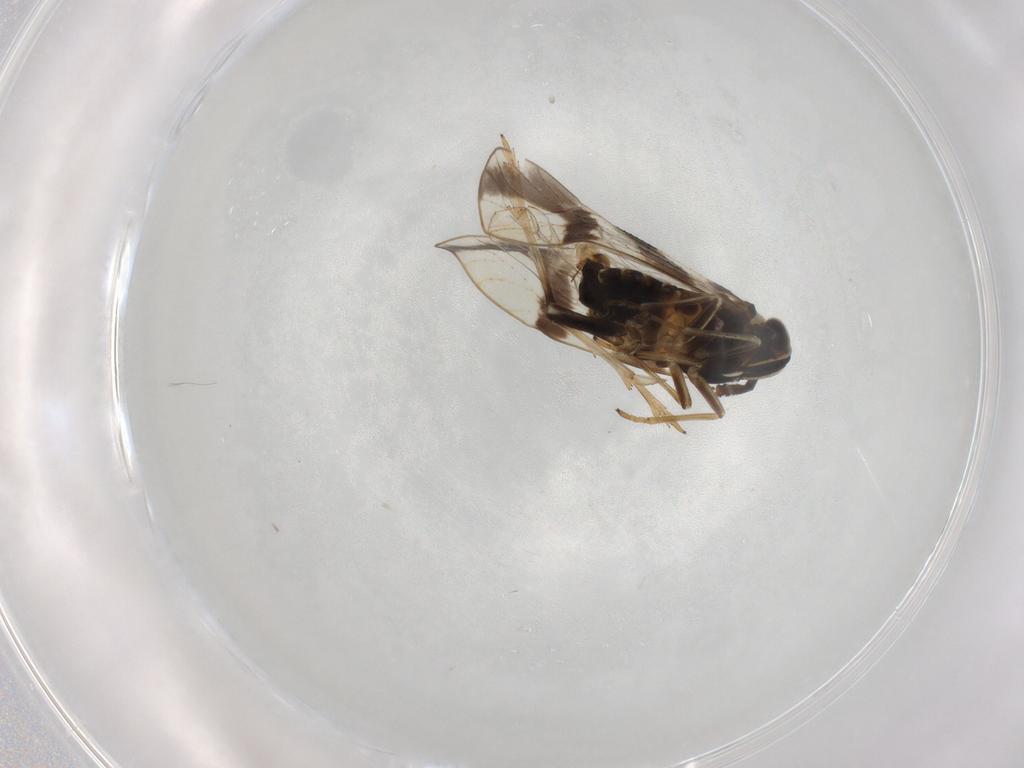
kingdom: Animalia
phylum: Arthropoda
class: Insecta
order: Hemiptera
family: Delphacidae
